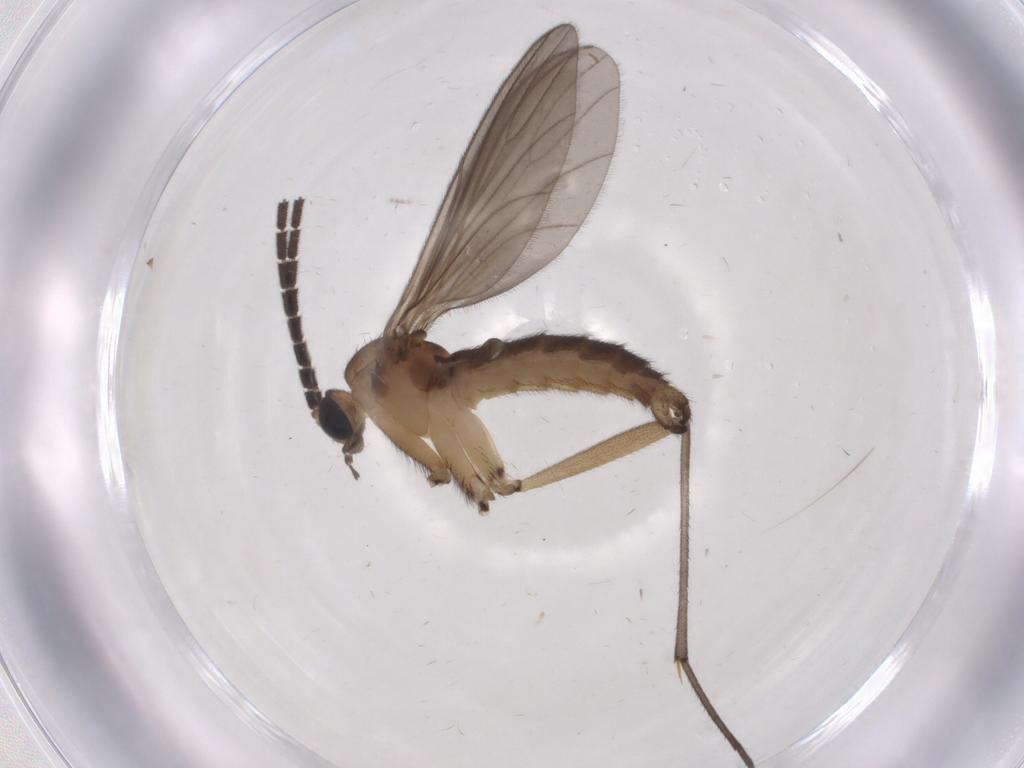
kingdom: Animalia
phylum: Arthropoda
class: Insecta
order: Diptera
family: Sciaridae
